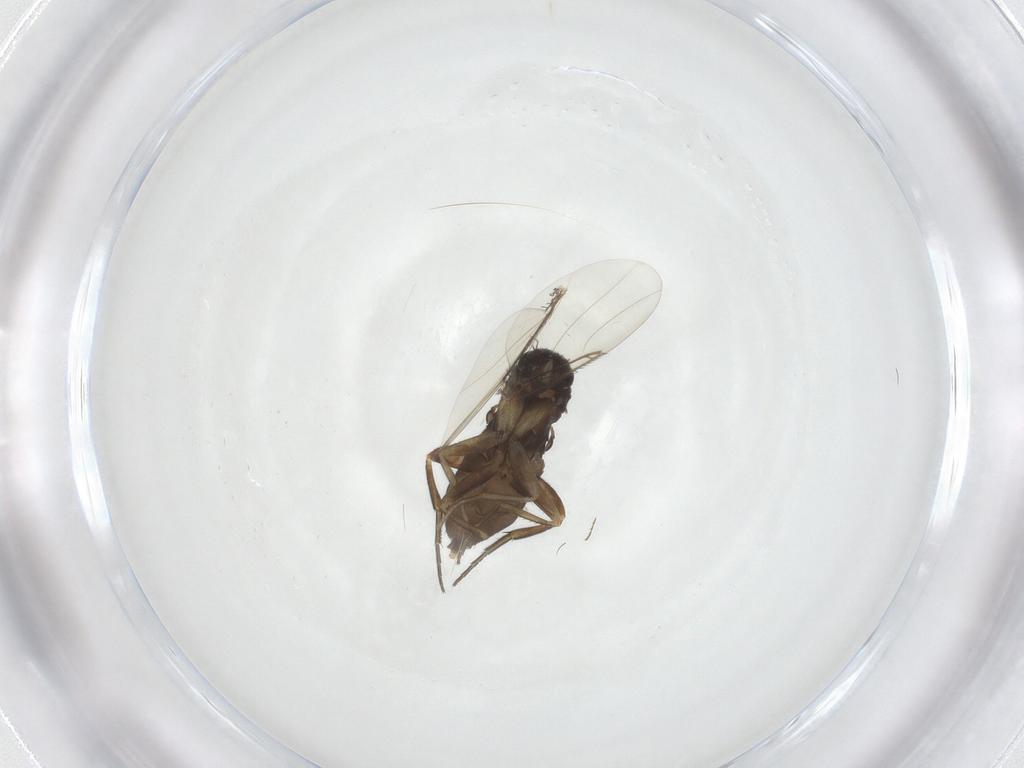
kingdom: Animalia
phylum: Arthropoda
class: Insecta
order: Diptera
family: Phoridae
